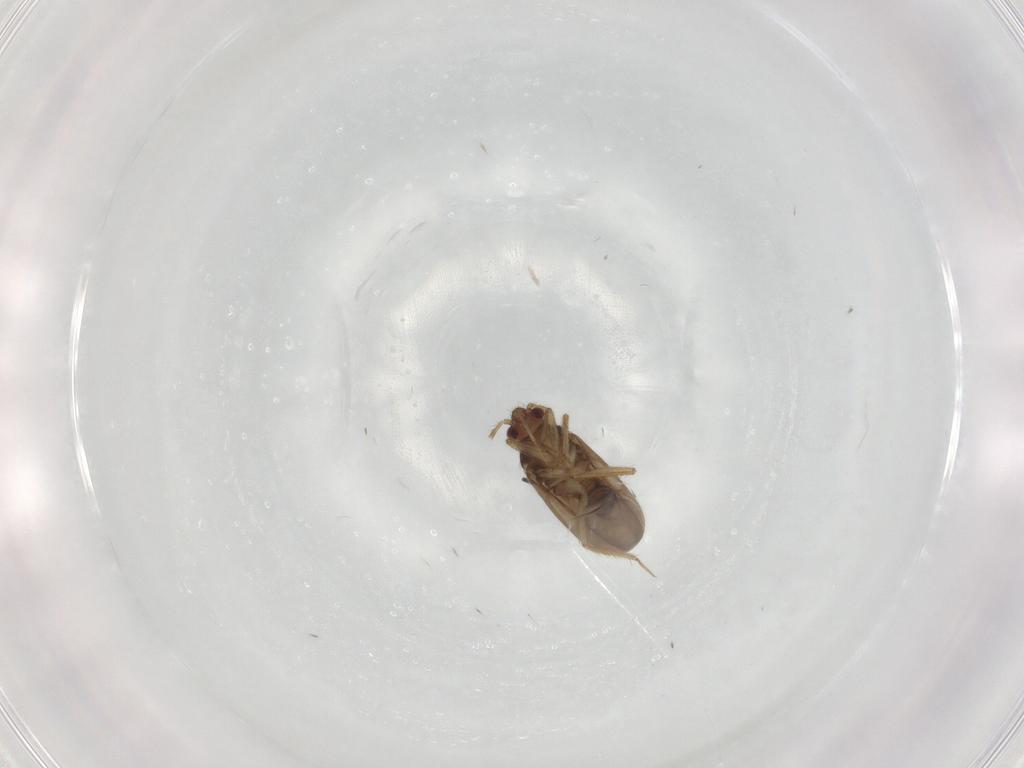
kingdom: Animalia
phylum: Arthropoda
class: Insecta
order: Hemiptera
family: Ceratocombidae
